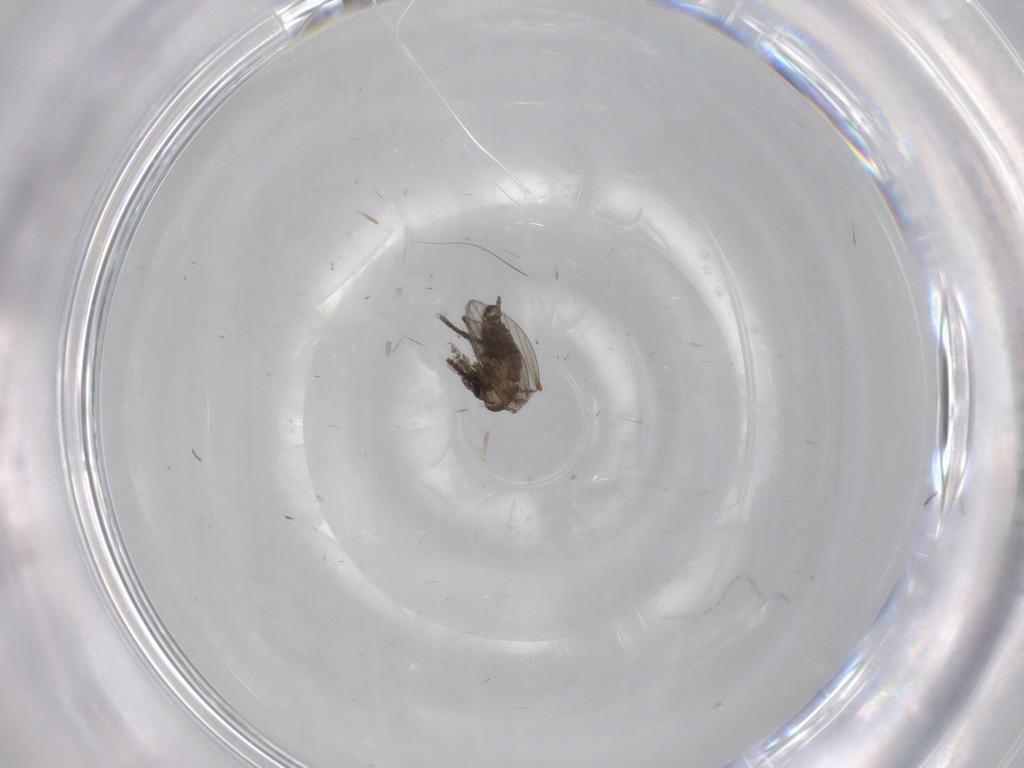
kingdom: Animalia
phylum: Arthropoda
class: Insecta
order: Diptera
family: Psychodidae
